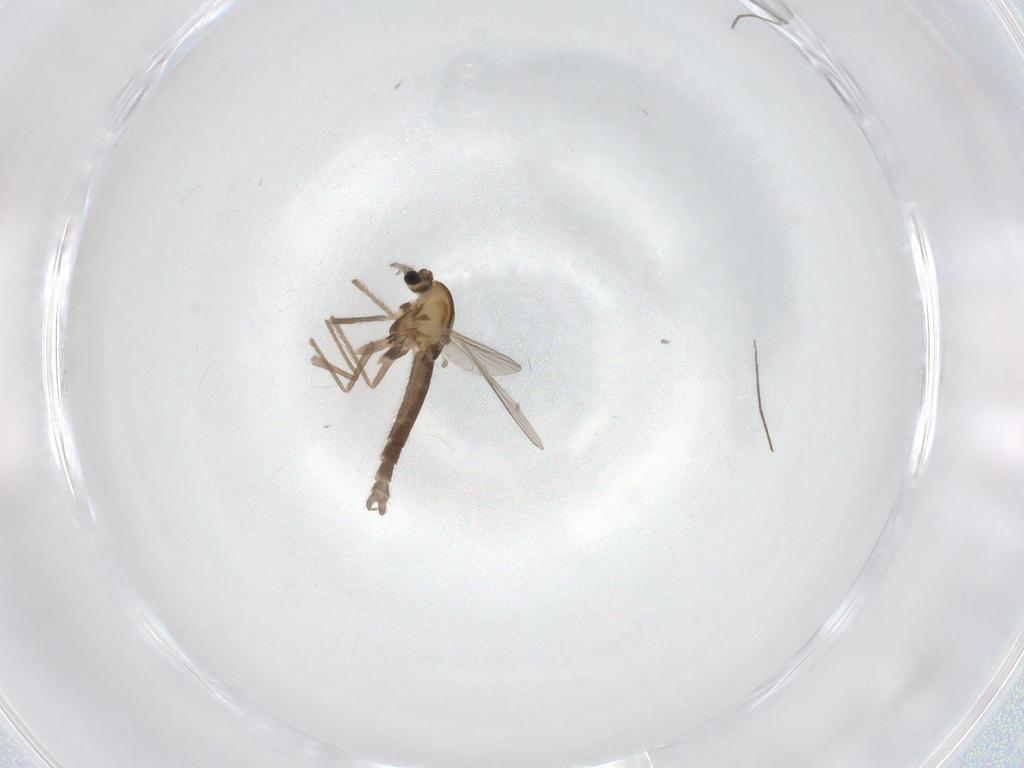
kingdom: Animalia
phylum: Arthropoda
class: Insecta
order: Diptera
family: Chironomidae
